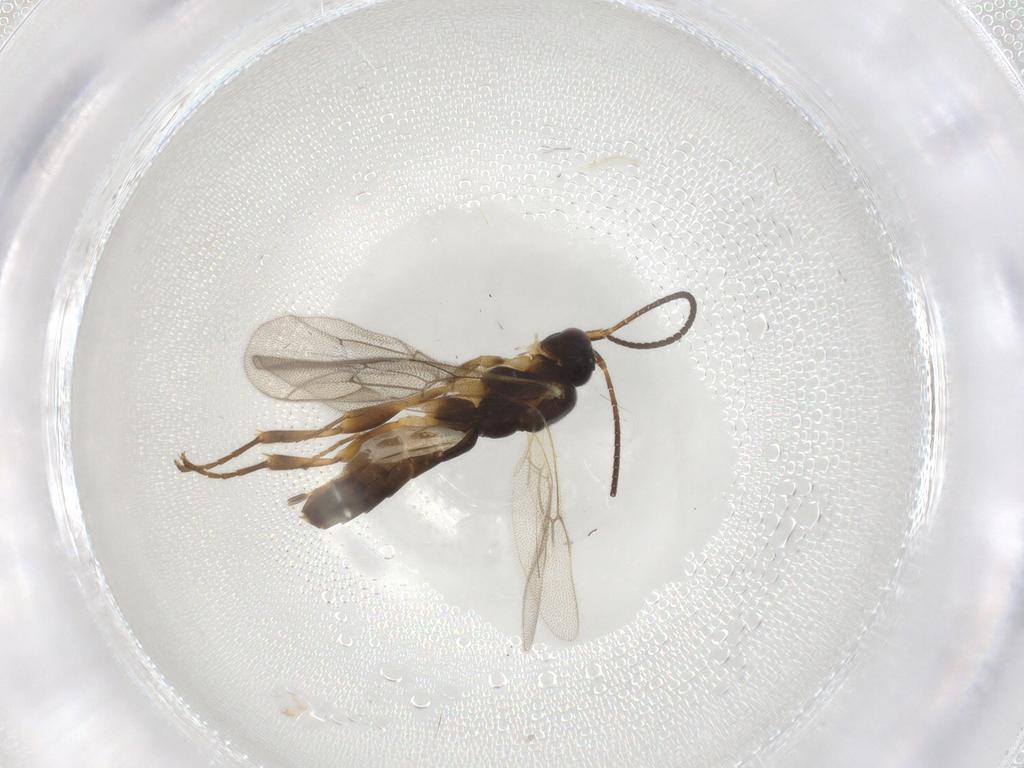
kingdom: Animalia
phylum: Arthropoda
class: Insecta
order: Hymenoptera
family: Ichneumonidae
